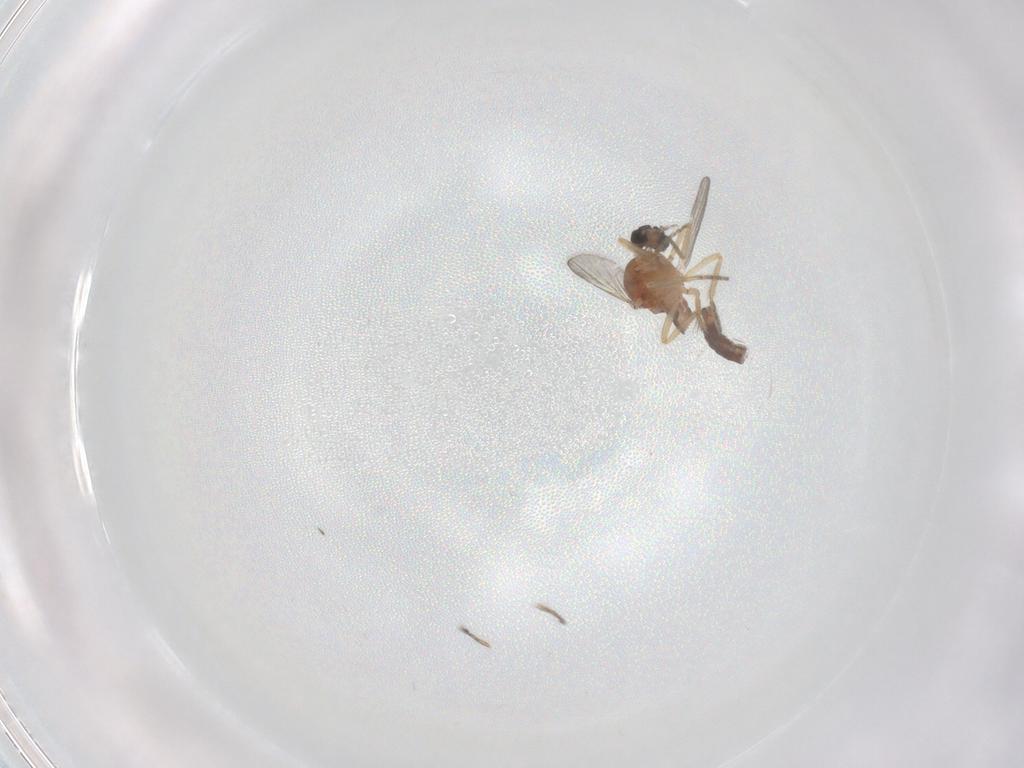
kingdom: Animalia
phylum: Arthropoda
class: Insecta
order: Diptera
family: Ceratopogonidae
